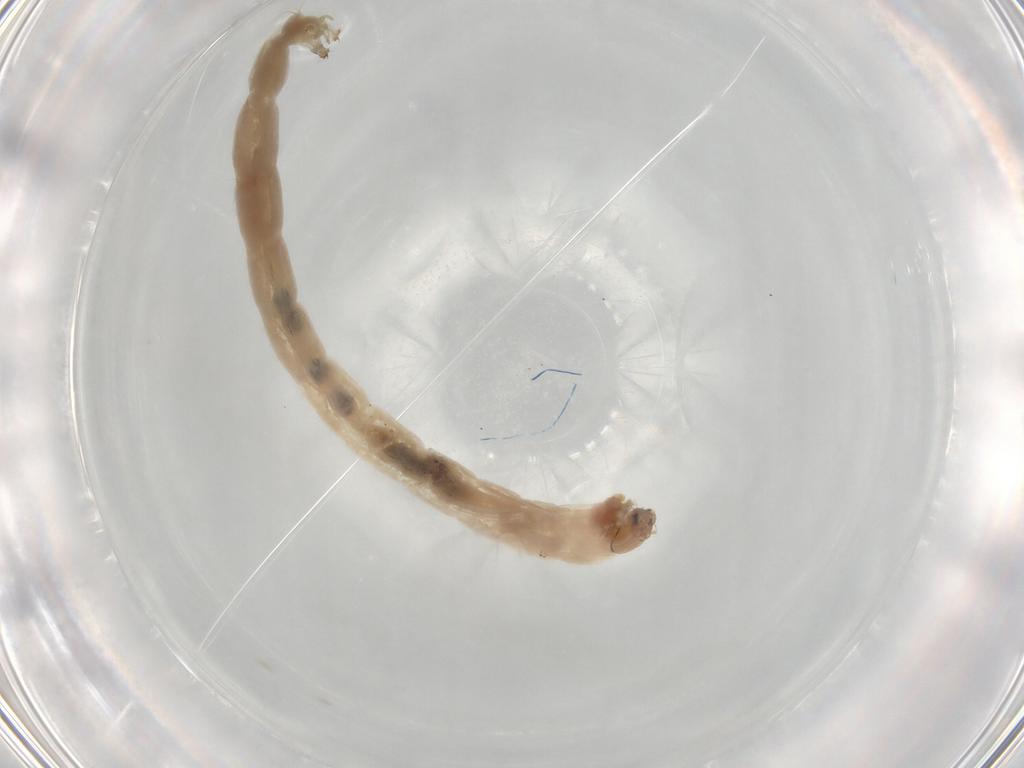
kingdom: Animalia
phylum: Arthropoda
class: Insecta
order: Diptera
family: Chironomidae
